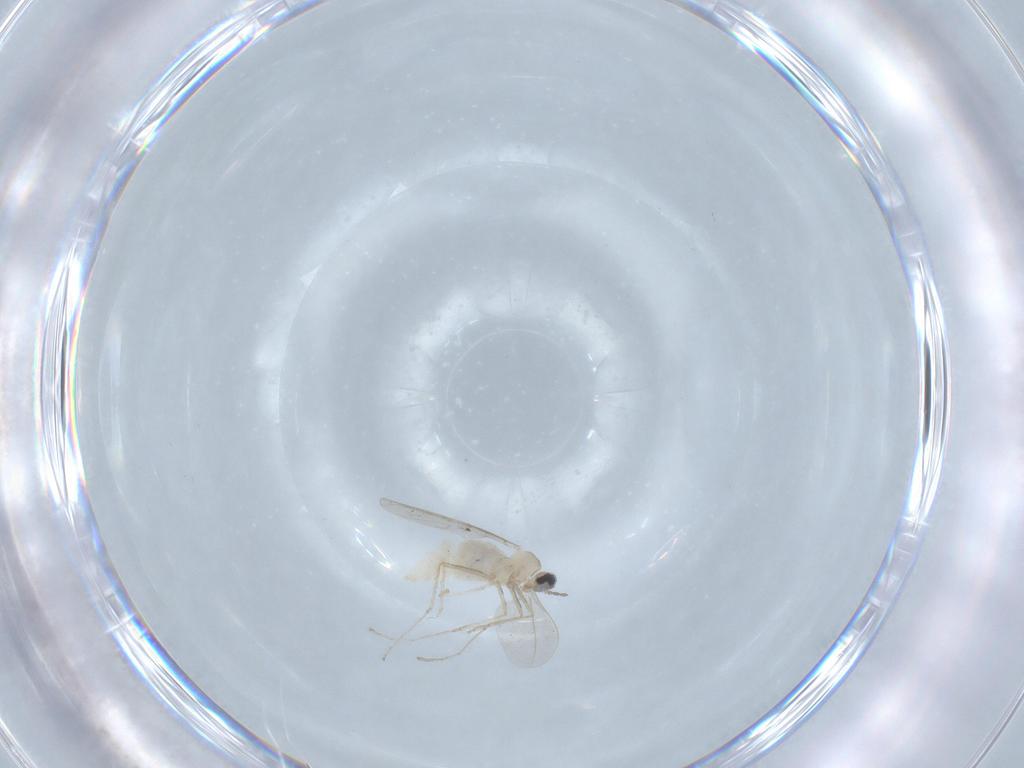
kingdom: Animalia
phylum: Arthropoda
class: Insecta
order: Diptera
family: Cecidomyiidae
